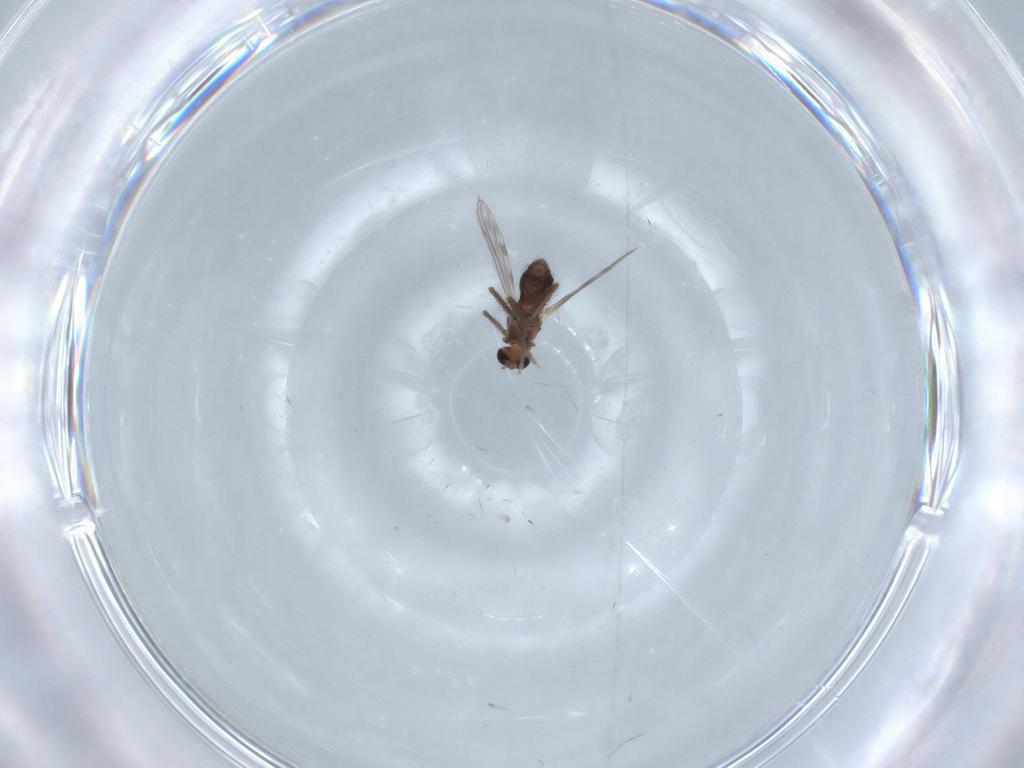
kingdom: Animalia
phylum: Arthropoda
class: Insecta
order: Diptera
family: Chironomidae
